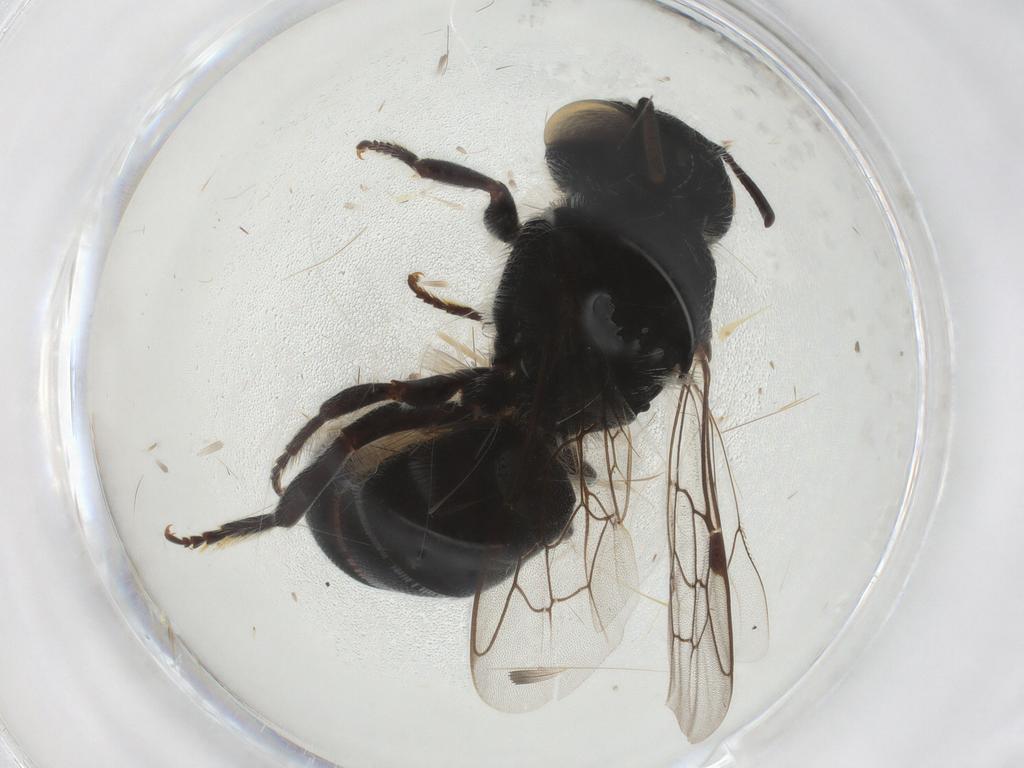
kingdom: Animalia
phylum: Arthropoda
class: Insecta
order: Hymenoptera
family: Megachilidae
